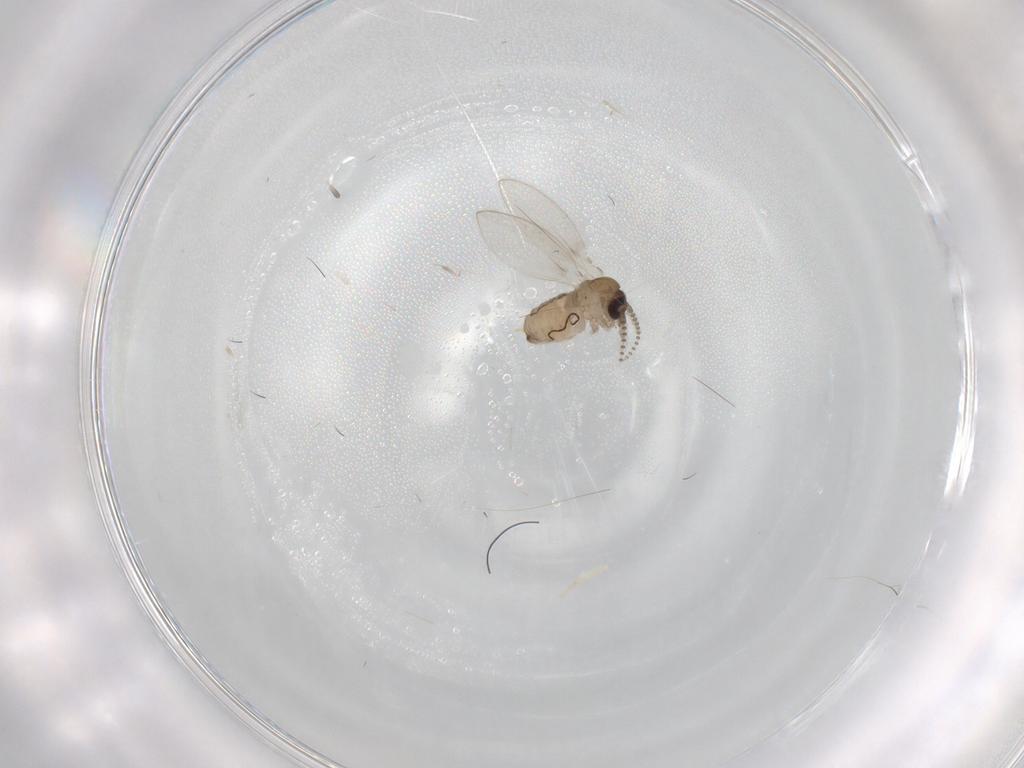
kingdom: Animalia
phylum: Arthropoda
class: Insecta
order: Diptera
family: Psychodidae
